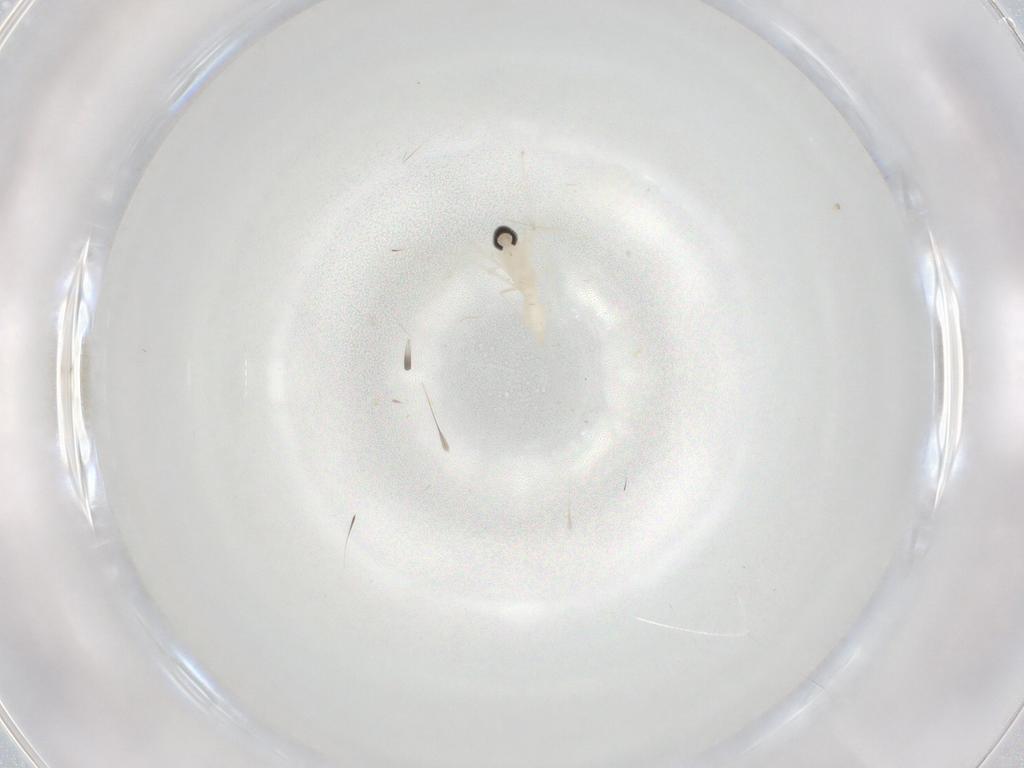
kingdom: Animalia
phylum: Arthropoda
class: Insecta
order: Diptera
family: Cecidomyiidae
